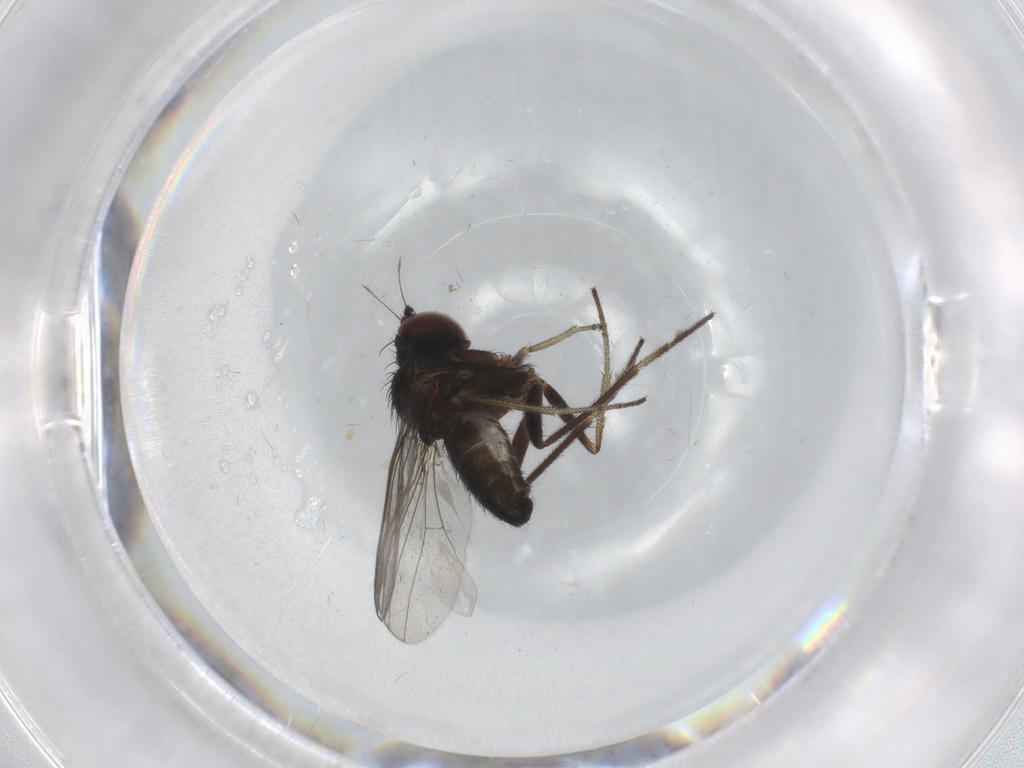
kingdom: Animalia
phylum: Arthropoda
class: Insecta
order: Diptera
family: Dolichopodidae
